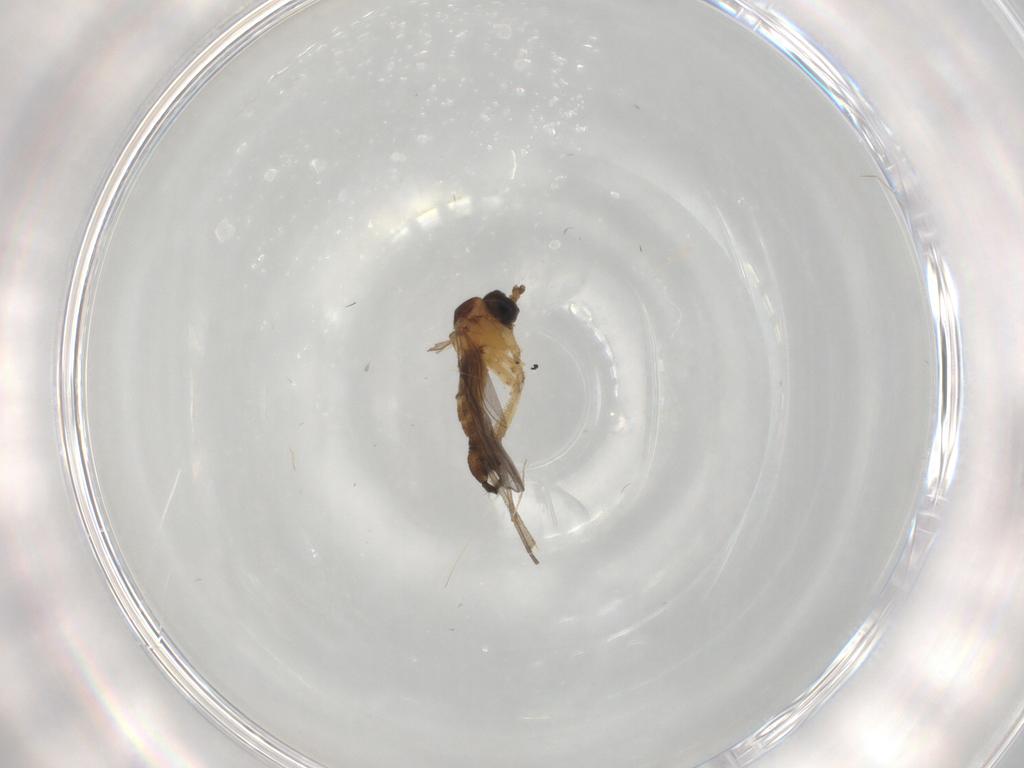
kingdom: Animalia
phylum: Arthropoda
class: Insecta
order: Diptera
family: Sciaridae
